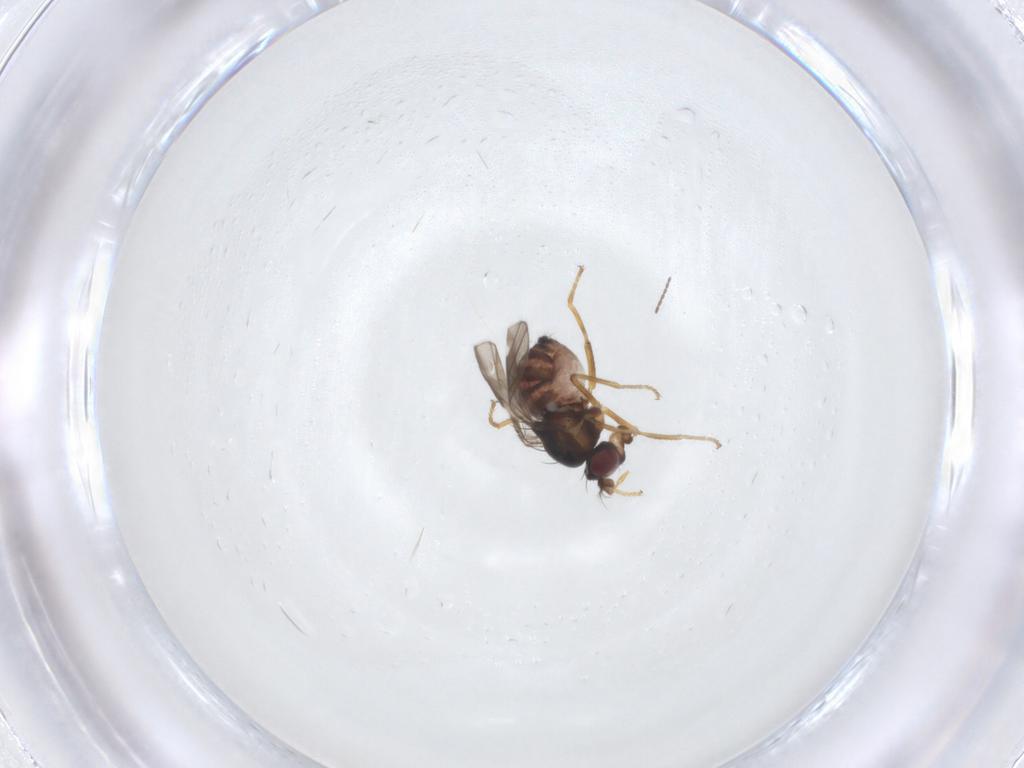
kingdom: Animalia
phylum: Arthropoda
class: Insecta
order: Diptera
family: Ephydridae
